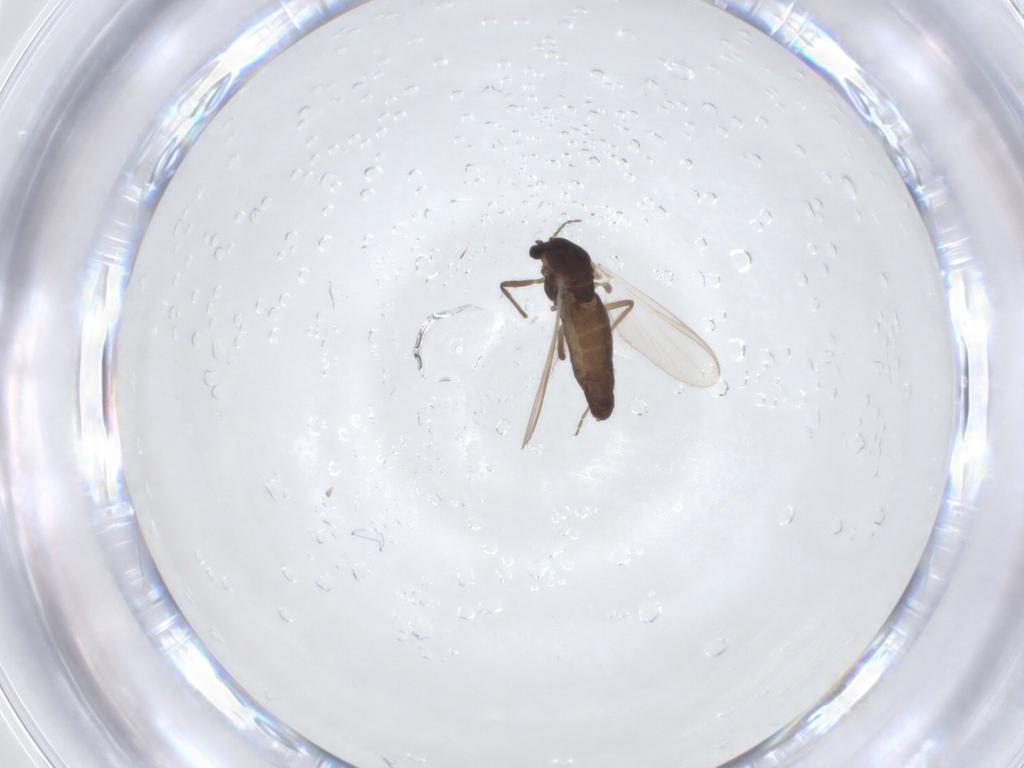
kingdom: Animalia
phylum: Arthropoda
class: Insecta
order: Diptera
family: Chironomidae
